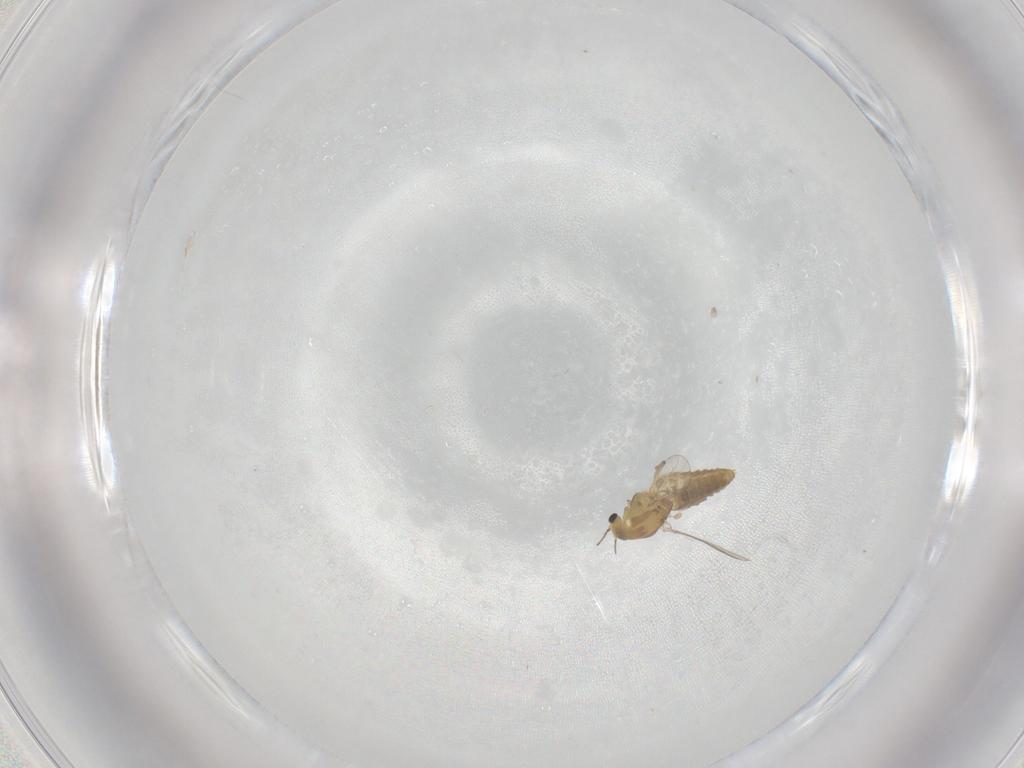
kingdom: Animalia
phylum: Arthropoda
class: Insecta
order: Diptera
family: Chironomidae
